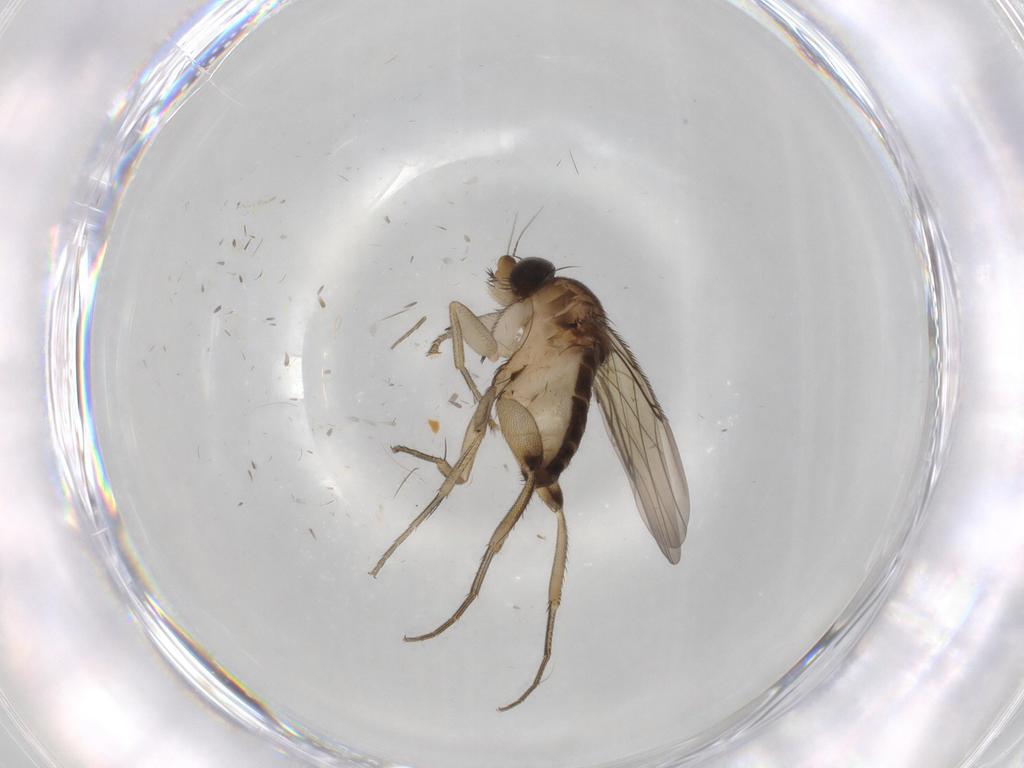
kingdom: Animalia
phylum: Arthropoda
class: Insecta
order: Diptera
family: Phoridae
